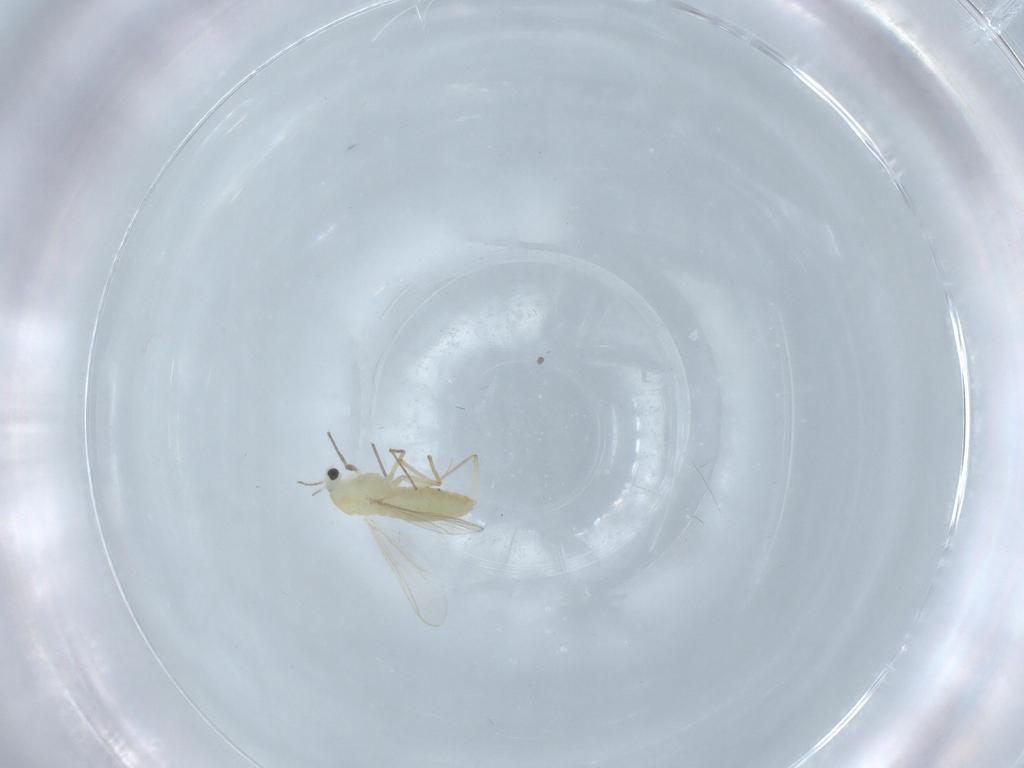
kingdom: Animalia
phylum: Arthropoda
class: Insecta
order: Diptera
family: Chironomidae
